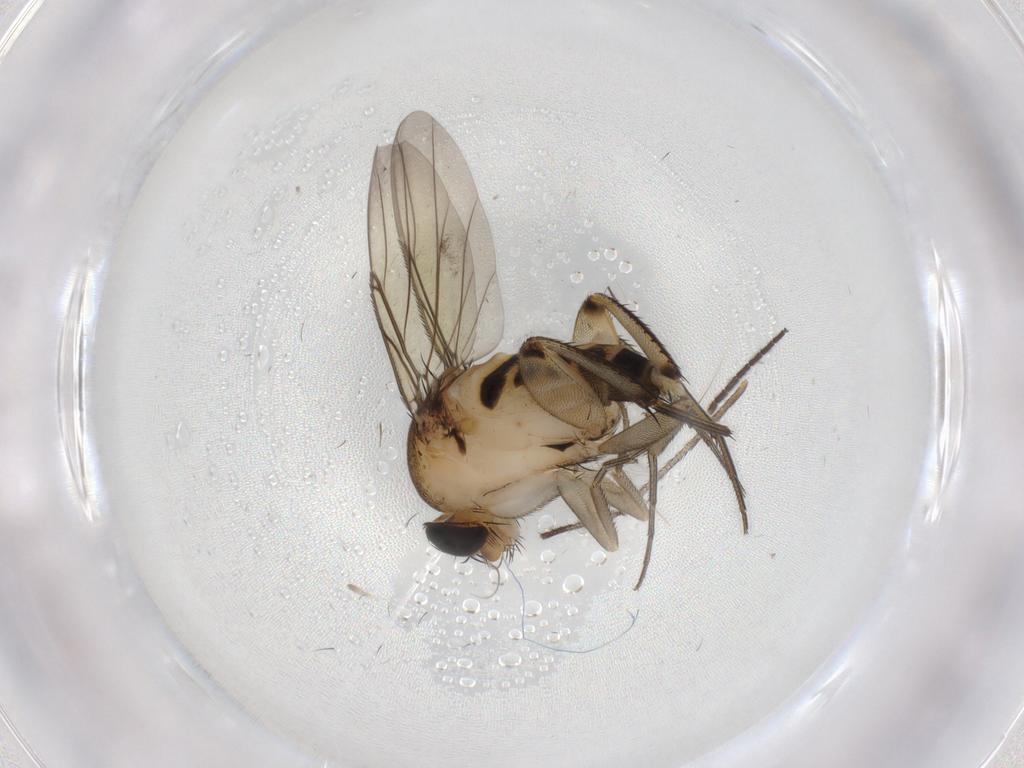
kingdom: Animalia
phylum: Arthropoda
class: Insecta
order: Diptera
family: Phoridae
